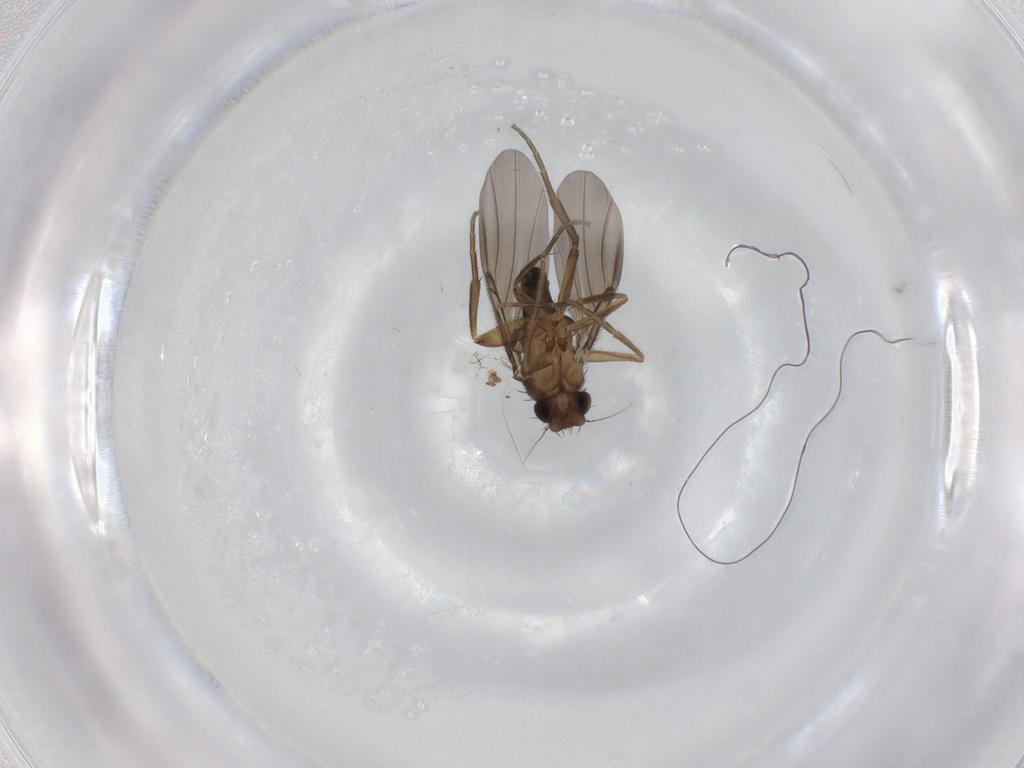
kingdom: Animalia
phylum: Arthropoda
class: Insecta
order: Diptera
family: Phoridae
